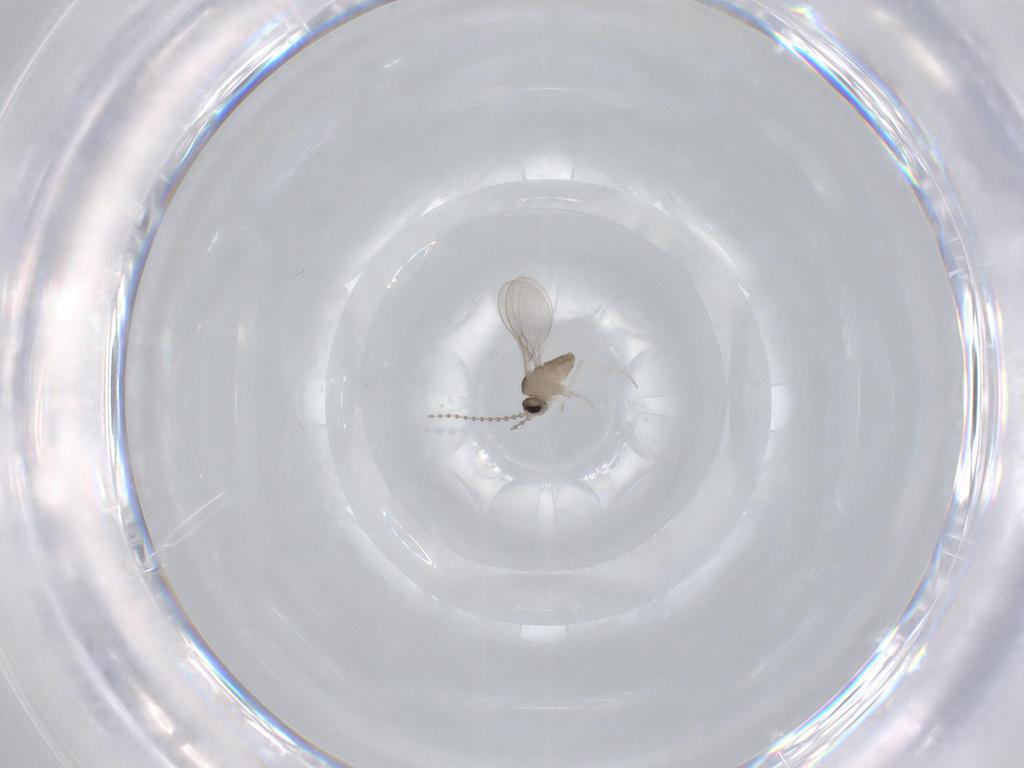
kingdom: Animalia
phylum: Arthropoda
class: Insecta
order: Diptera
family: Cecidomyiidae
